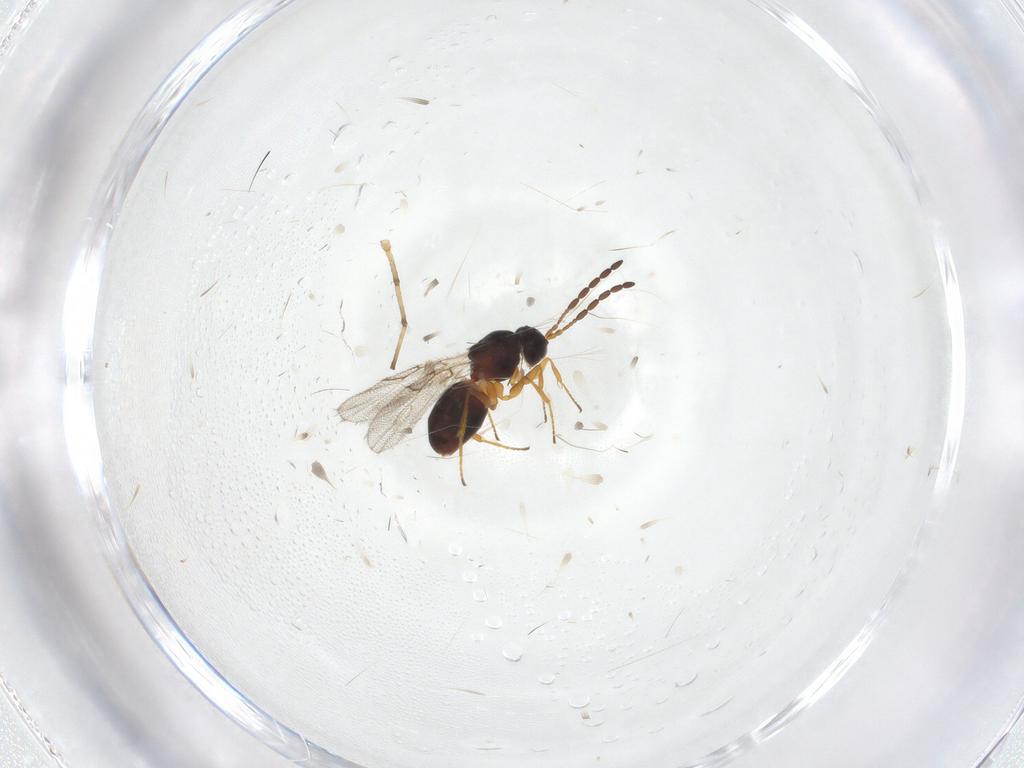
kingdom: Animalia
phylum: Arthropoda
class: Insecta
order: Hymenoptera
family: Figitidae
